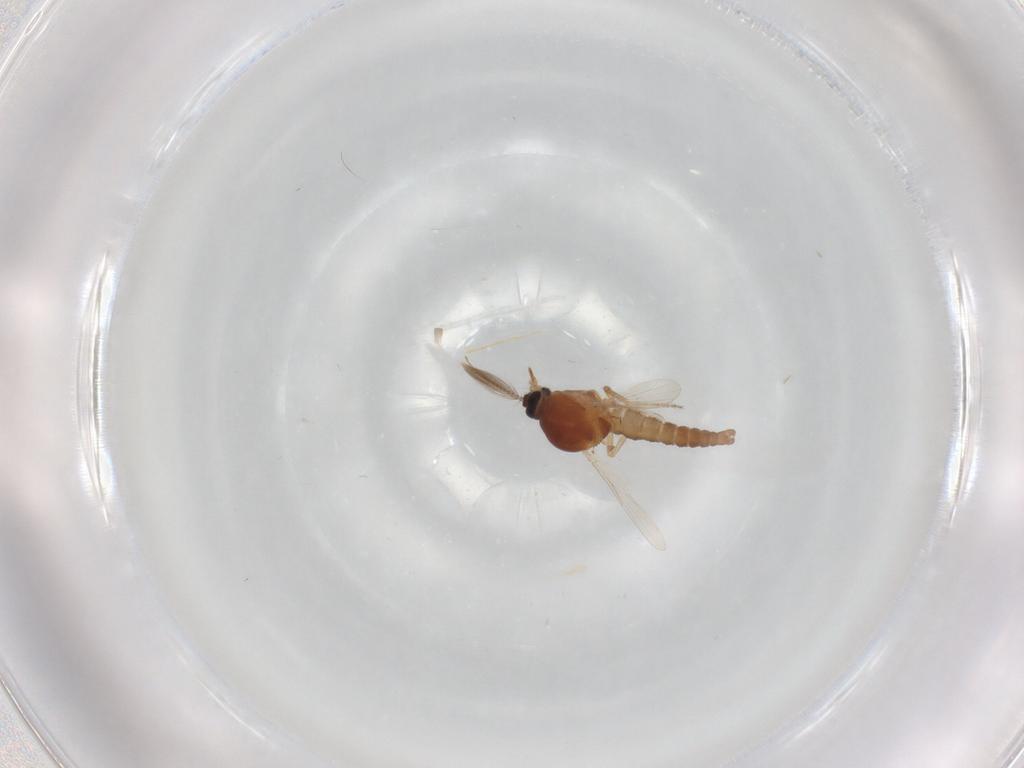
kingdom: Animalia
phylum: Arthropoda
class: Insecta
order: Diptera
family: Ceratopogonidae
